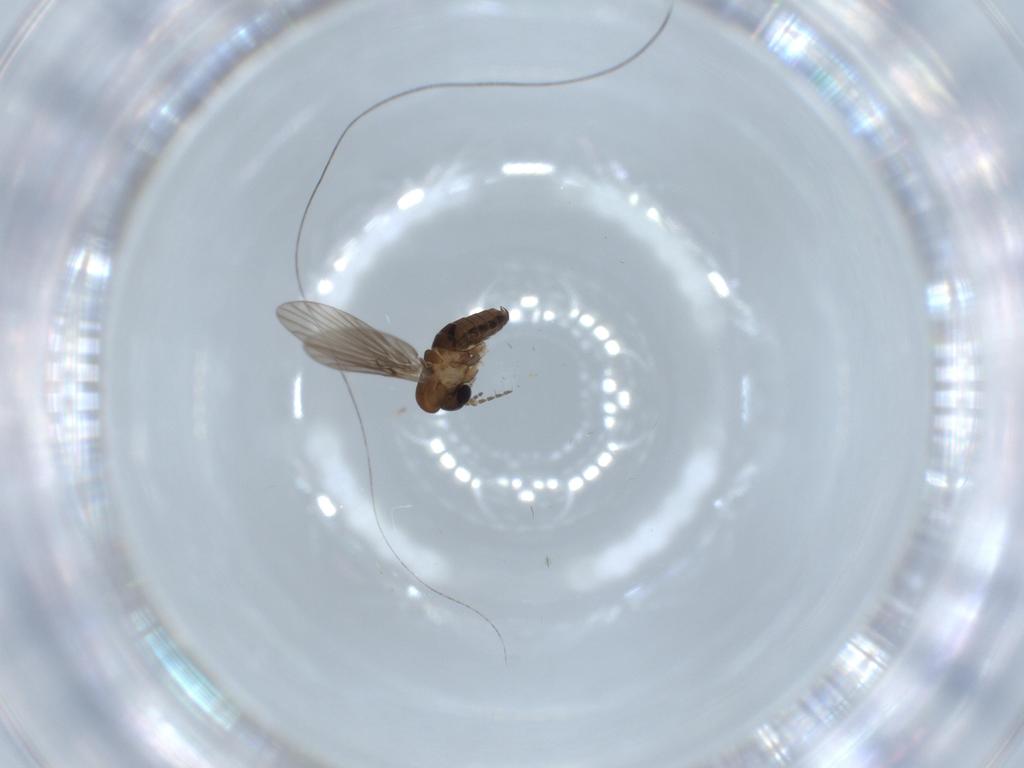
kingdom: Animalia
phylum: Arthropoda
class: Insecta
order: Diptera
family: Psychodidae
